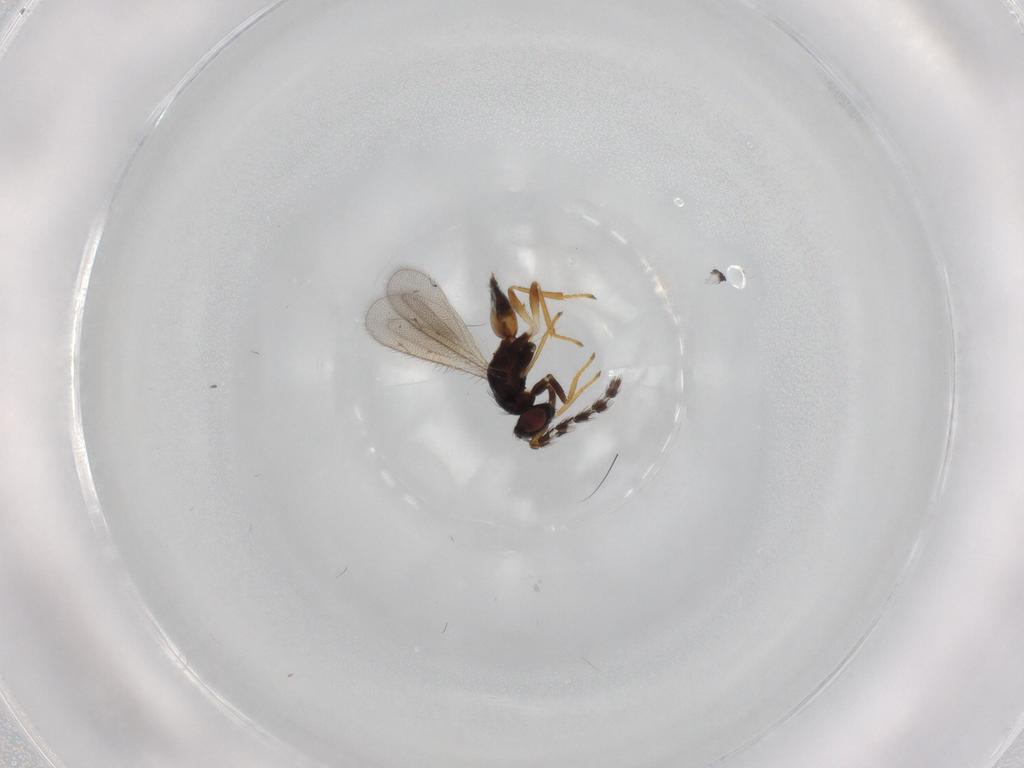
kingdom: Animalia
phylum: Arthropoda
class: Insecta
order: Hymenoptera
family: Eulophidae
